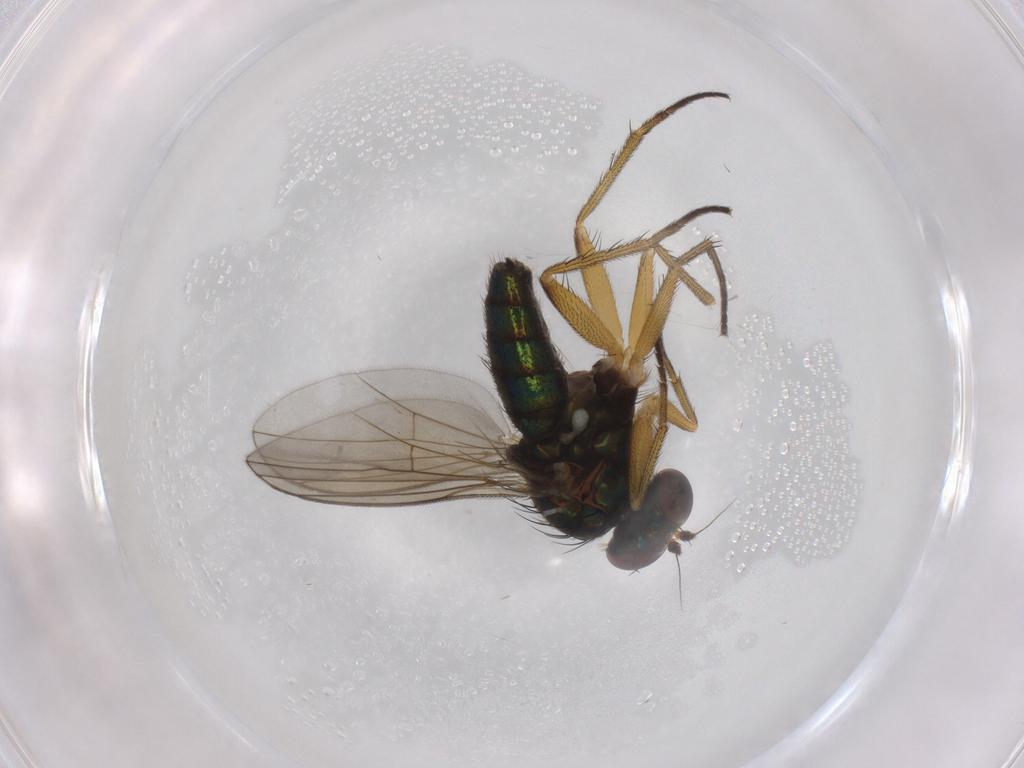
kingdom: Animalia
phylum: Arthropoda
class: Insecta
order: Diptera
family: Dolichopodidae
